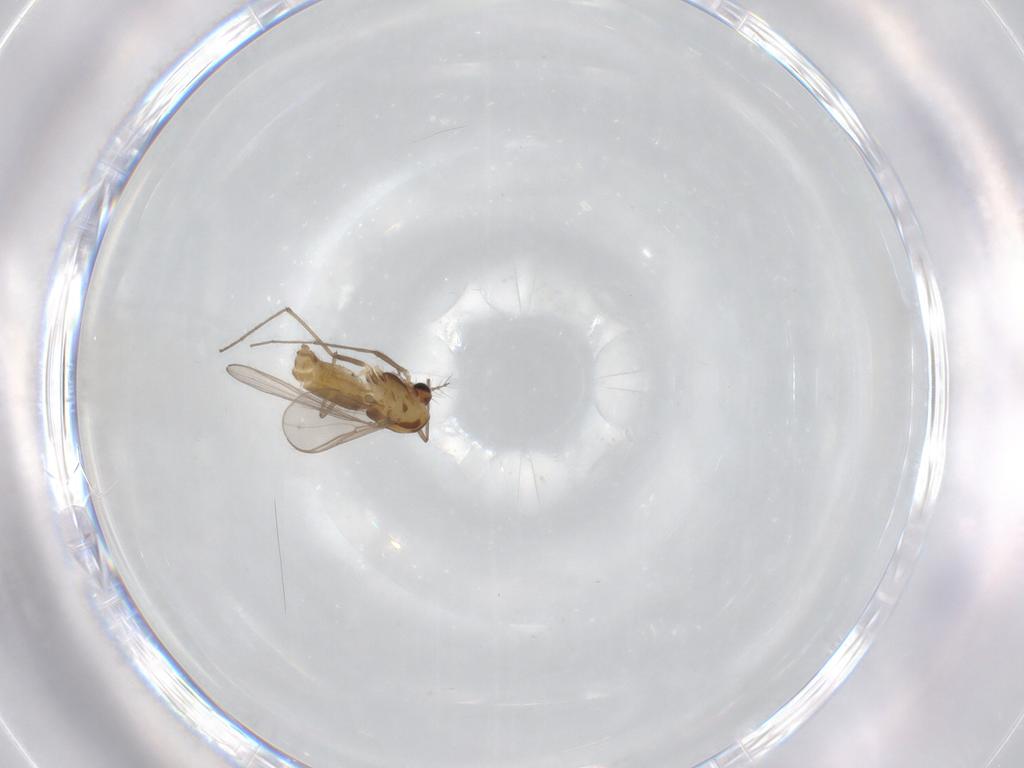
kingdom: Animalia
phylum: Arthropoda
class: Insecta
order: Diptera
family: Chironomidae
